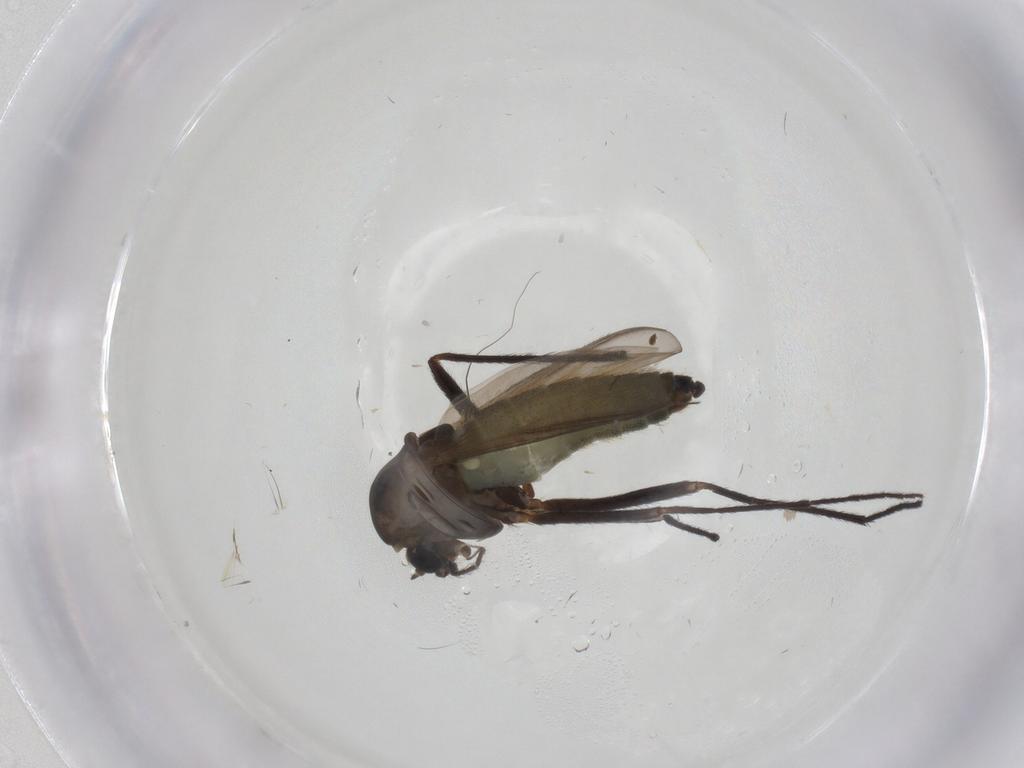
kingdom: Animalia
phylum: Arthropoda
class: Insecta
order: Diptera
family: Chironomidae
